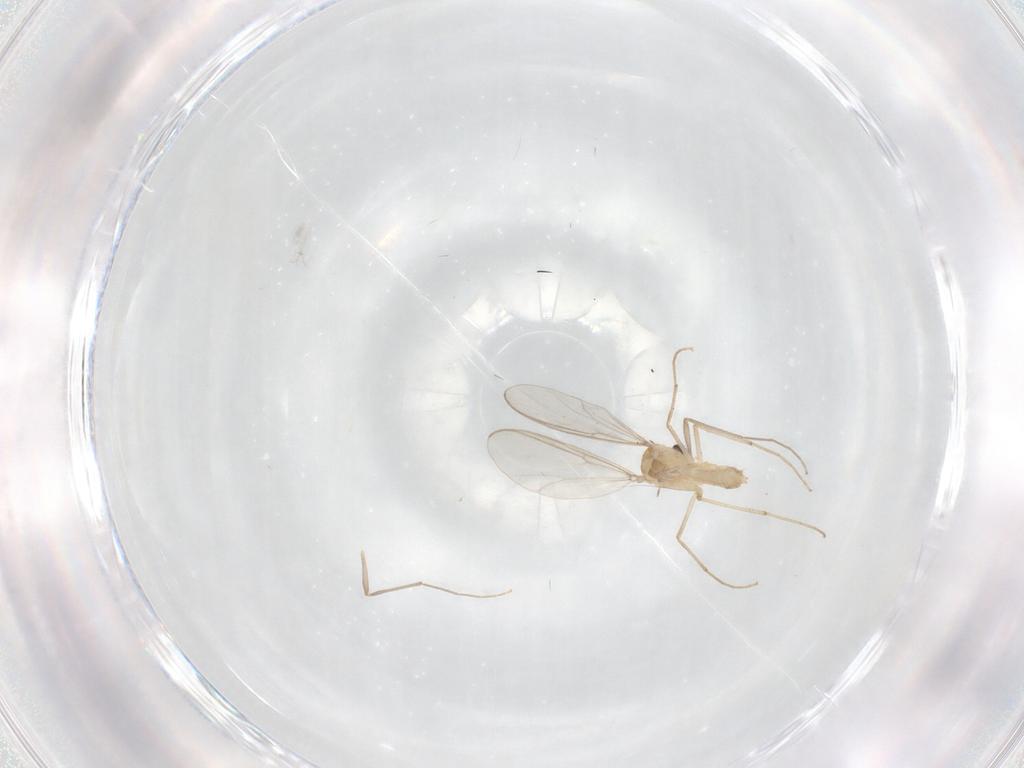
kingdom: Animalia
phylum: Arthropoda
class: Insecta
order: Diptera
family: Chironomidae
